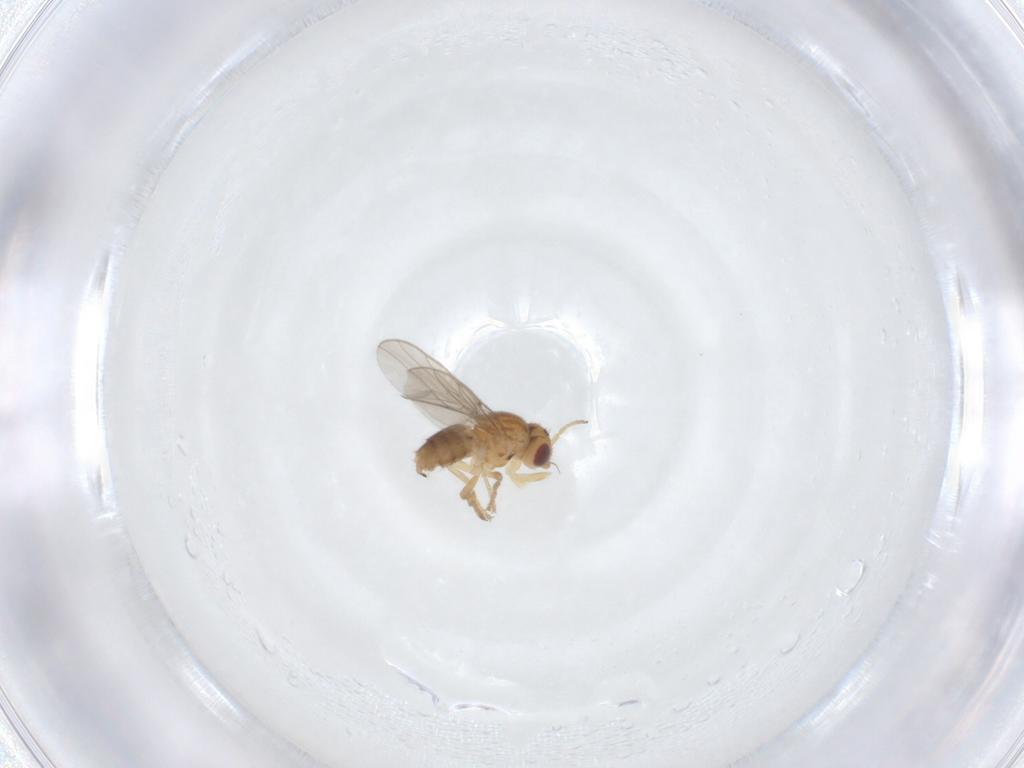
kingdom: Animalia
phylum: Arthropoda
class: Insecta
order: Diptera
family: Chloropidae
